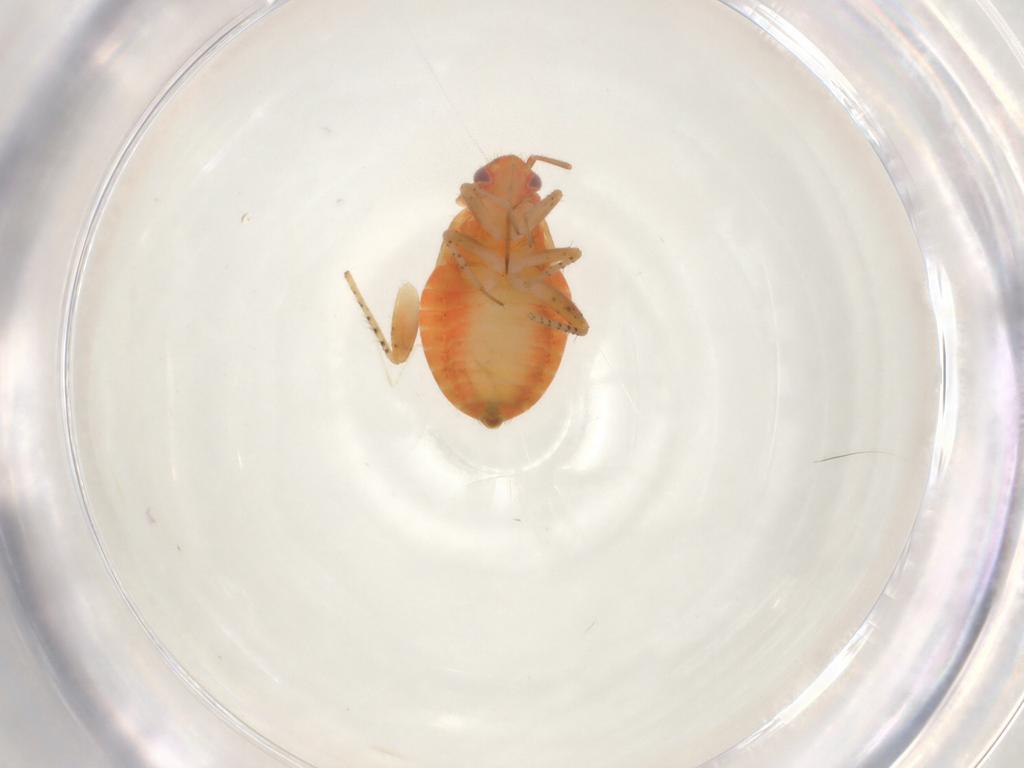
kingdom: Animalia
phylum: Arthropoda
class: Insecta
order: Hemiptera
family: Miridae
